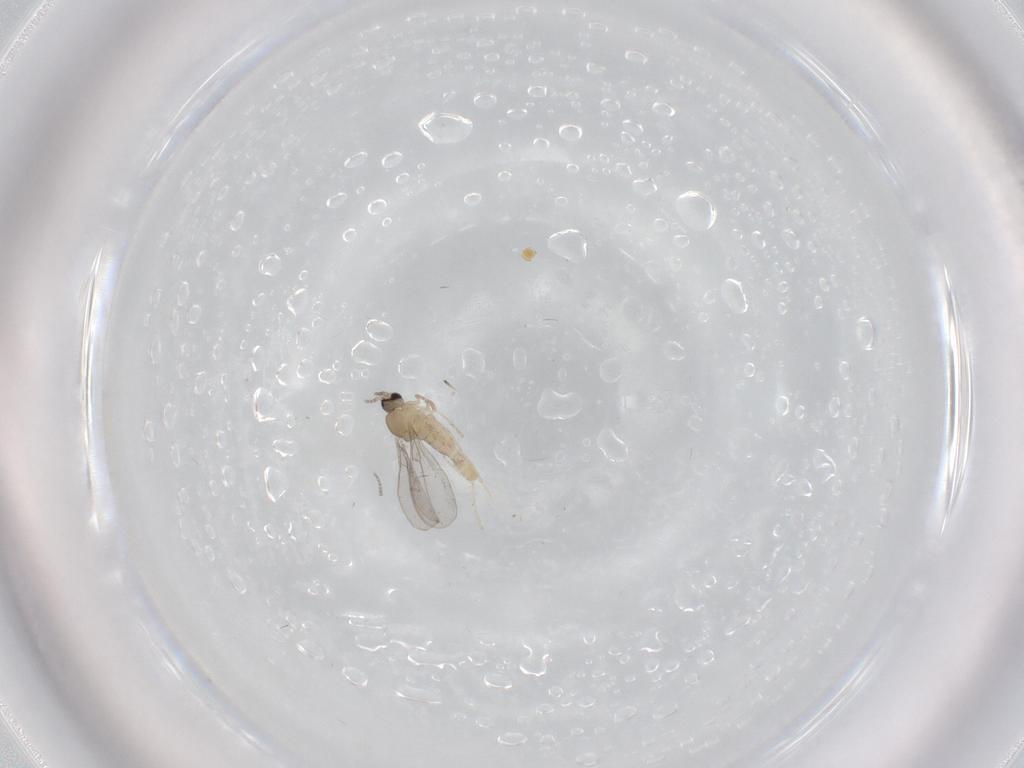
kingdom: Animalia
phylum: Arthropoda
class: Insecta
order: Diptera
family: Cecidomyiidae
